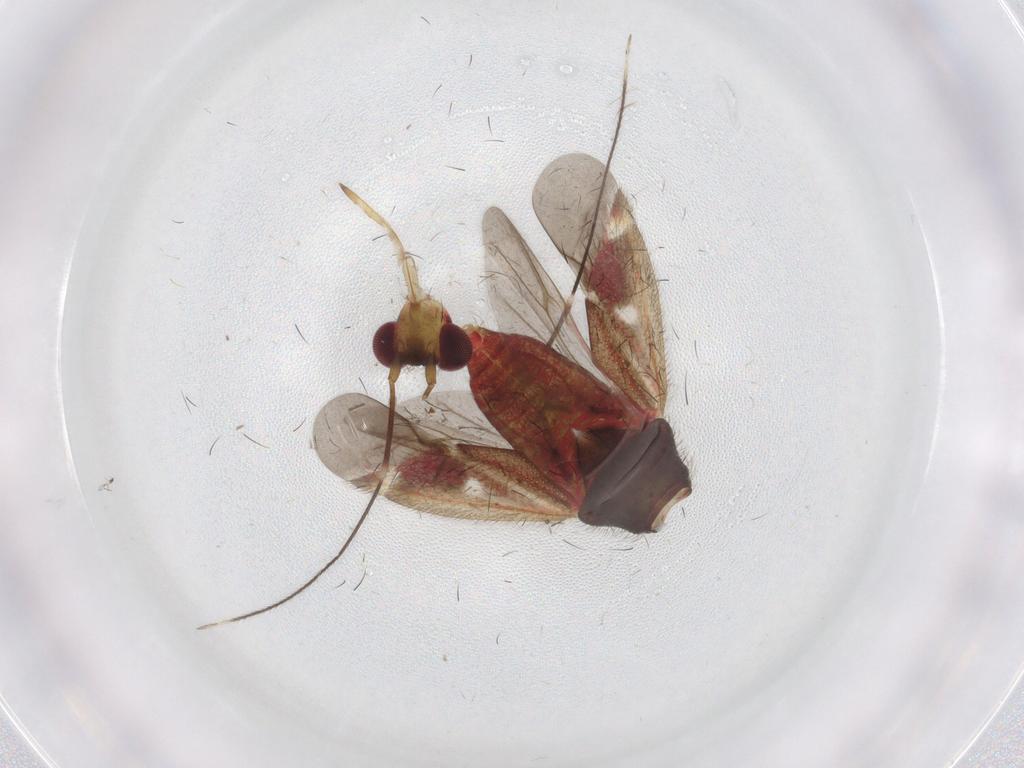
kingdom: Animalia
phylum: Arthropoda
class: Insecta
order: Hemiptera
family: Miridae
